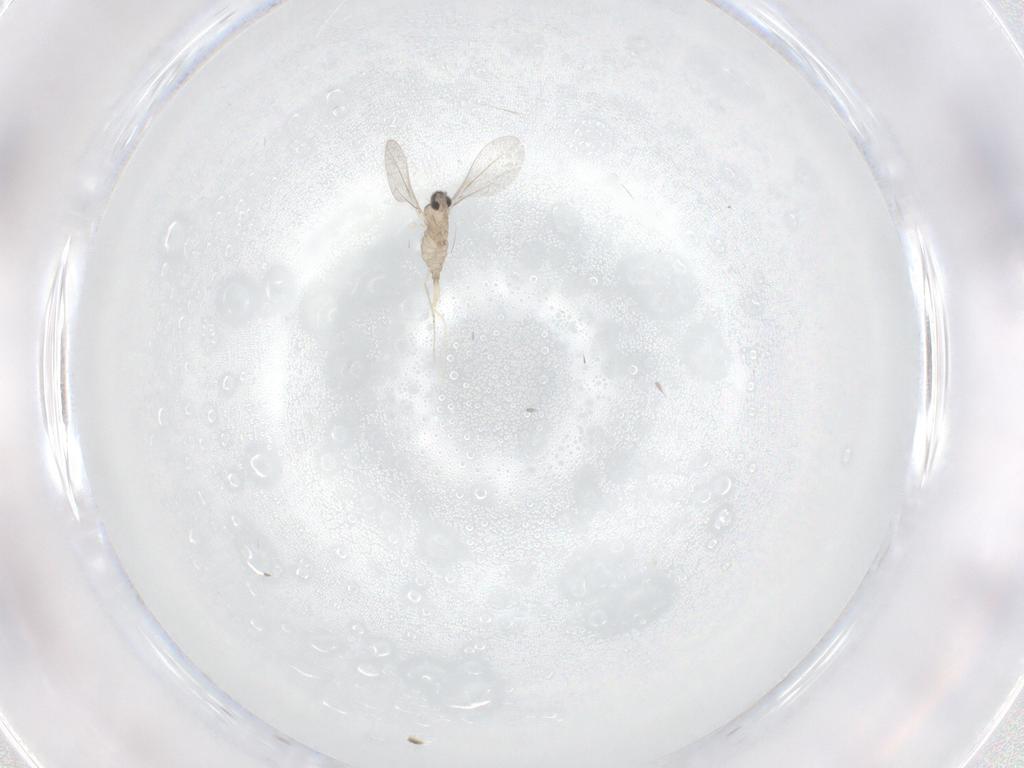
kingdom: Animalia
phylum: Arthropoda
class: Insecta
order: Diptera
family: Cecidomyiidae
